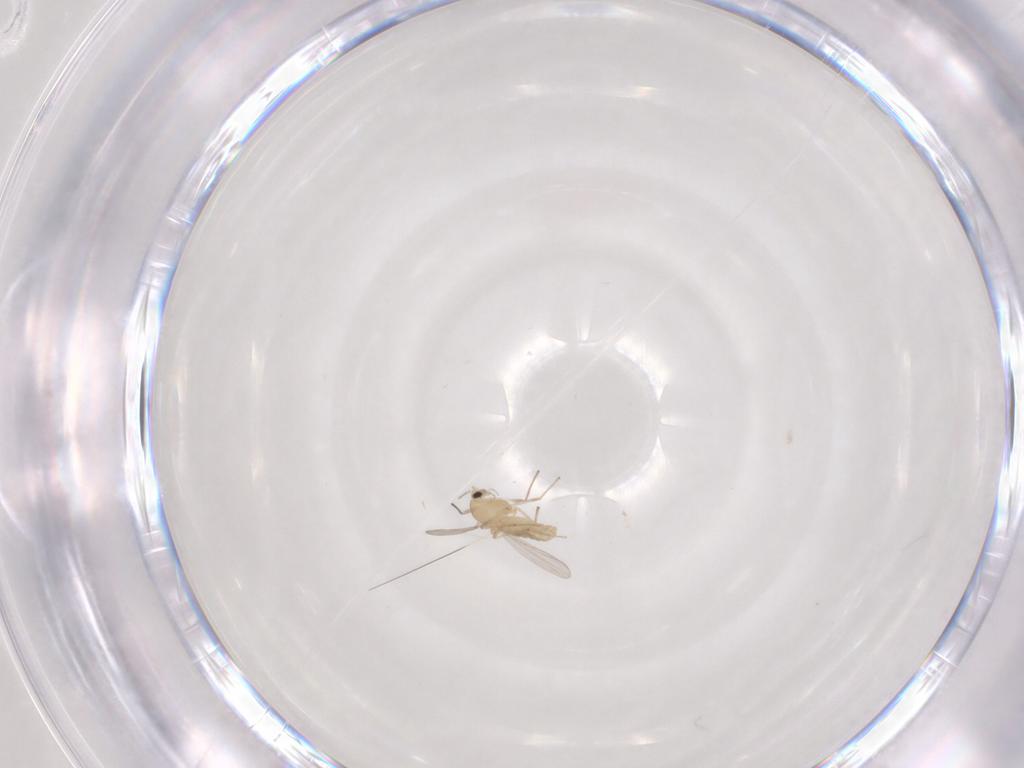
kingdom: Animalia
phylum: Arthropoda
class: Insecta
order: Diptera
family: Chironomidae
